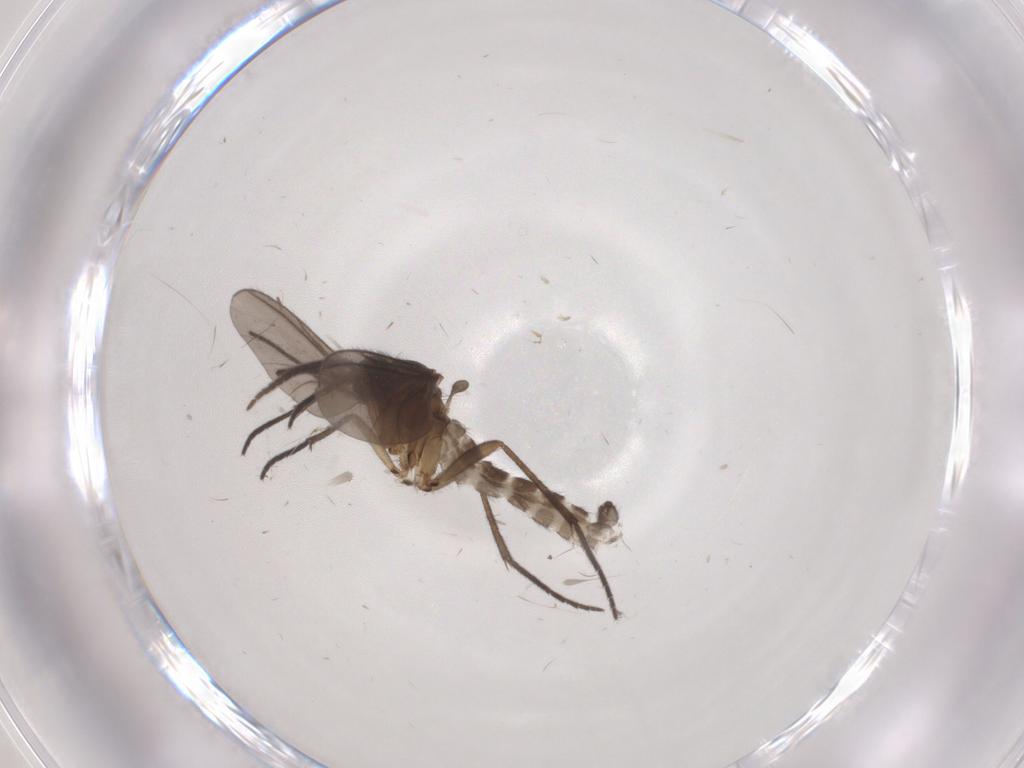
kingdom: Animalia
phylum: Arthropoda
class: Insecta
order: Diptera
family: Sciaridae
